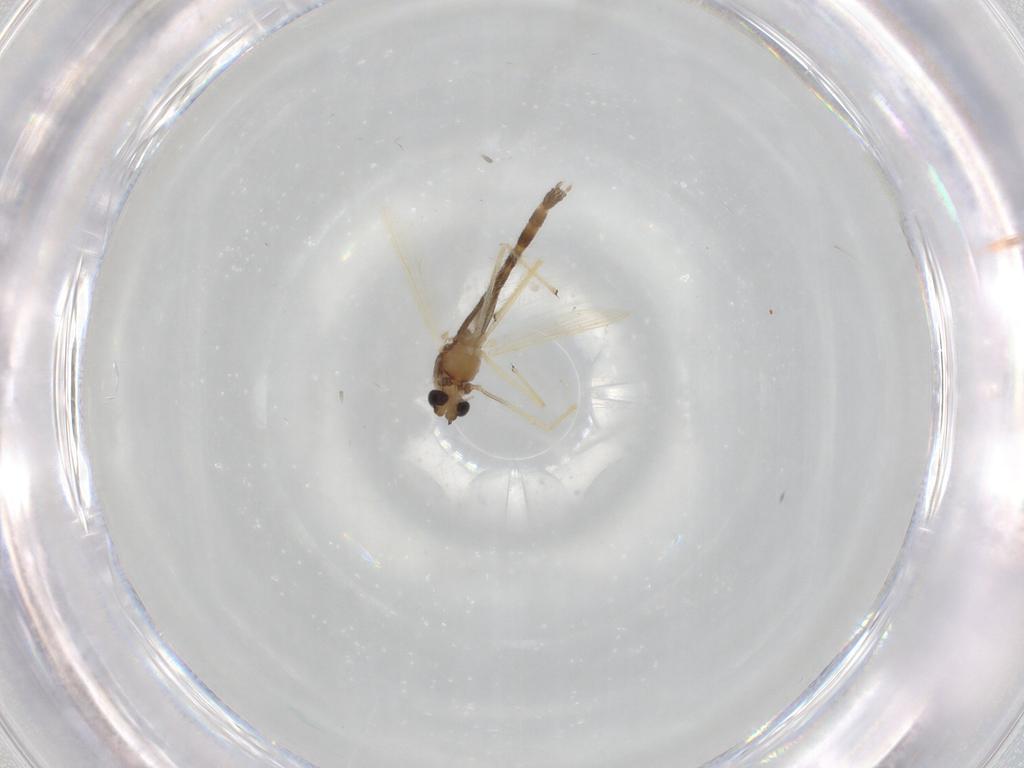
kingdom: Animalia
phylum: Arthropoda
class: Insecta
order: Diptera
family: Chironomidae
